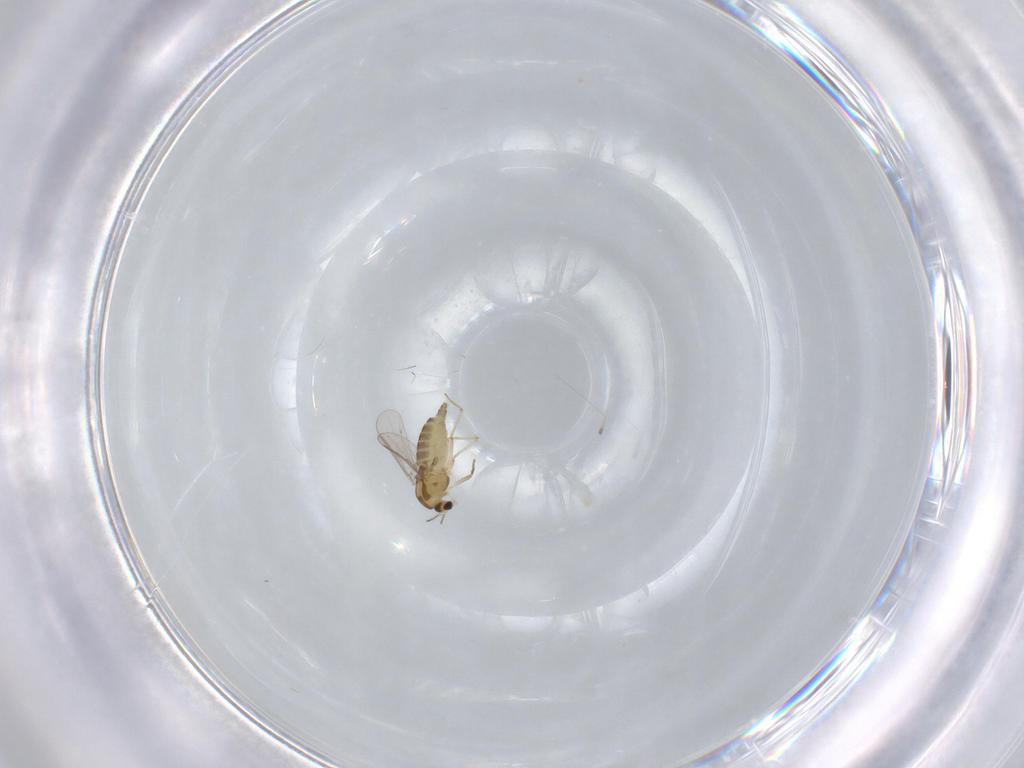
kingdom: Animalia
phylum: Arthropoda
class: Insecta
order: Diptera
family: Chironomidae
